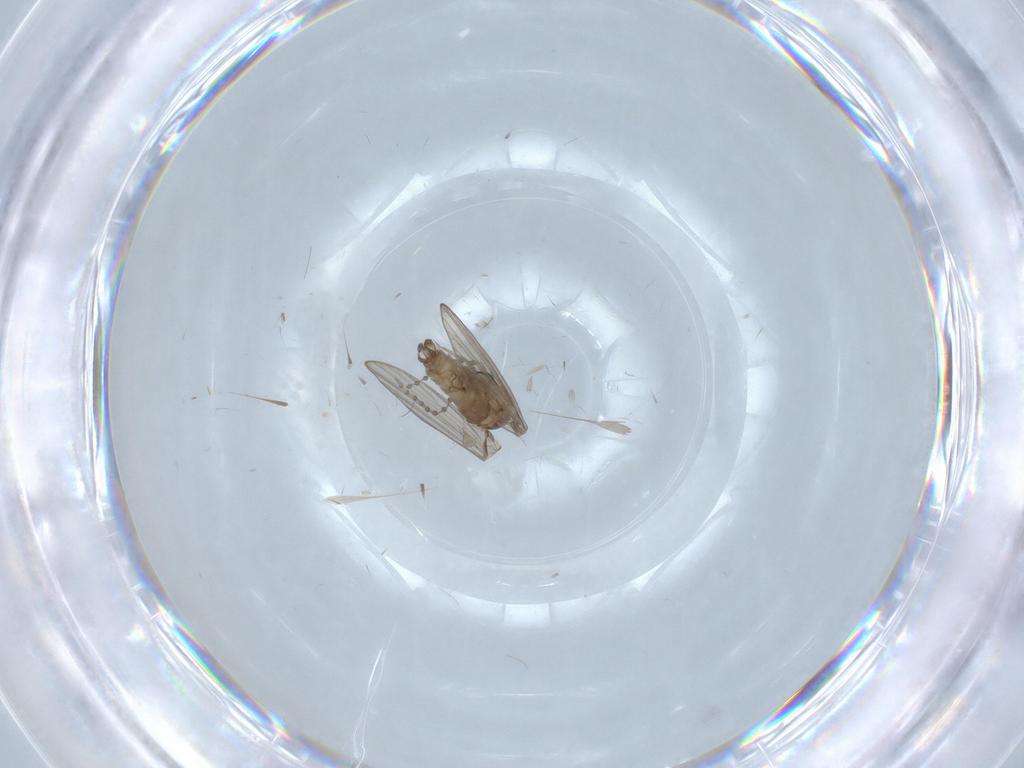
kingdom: Animalia
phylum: Arthropoda
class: Insecta
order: Diptera
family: Psychodidae
